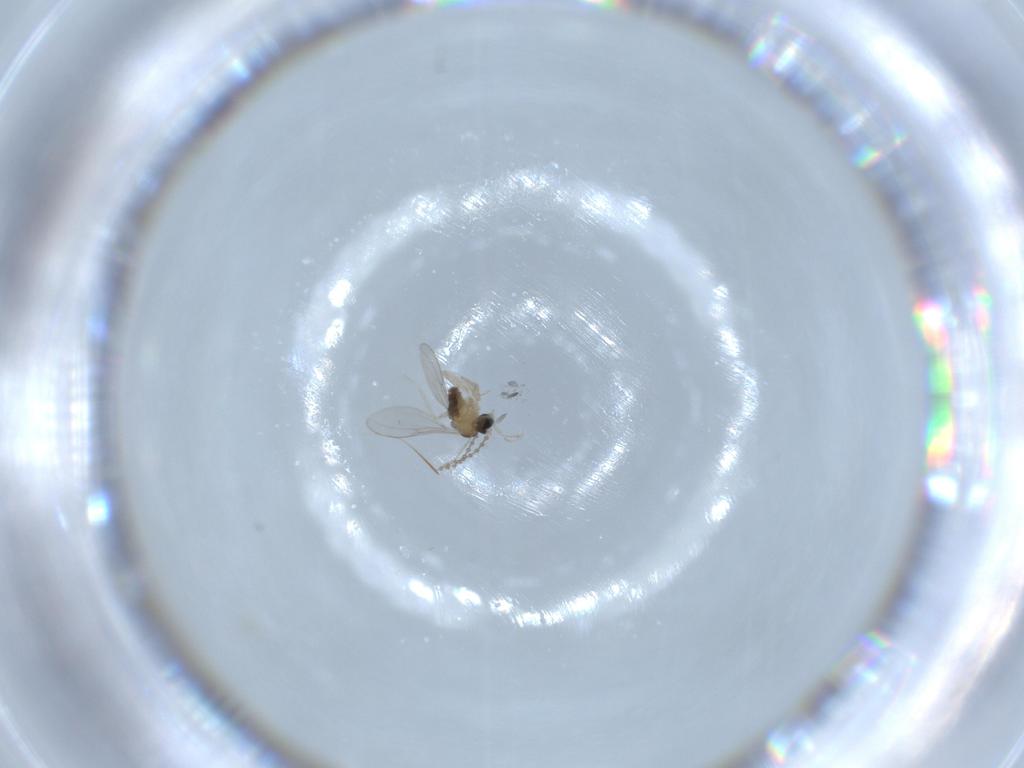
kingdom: Animalia
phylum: Arthropoda
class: Insecta
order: Diptera
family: Cecidomyiidae
